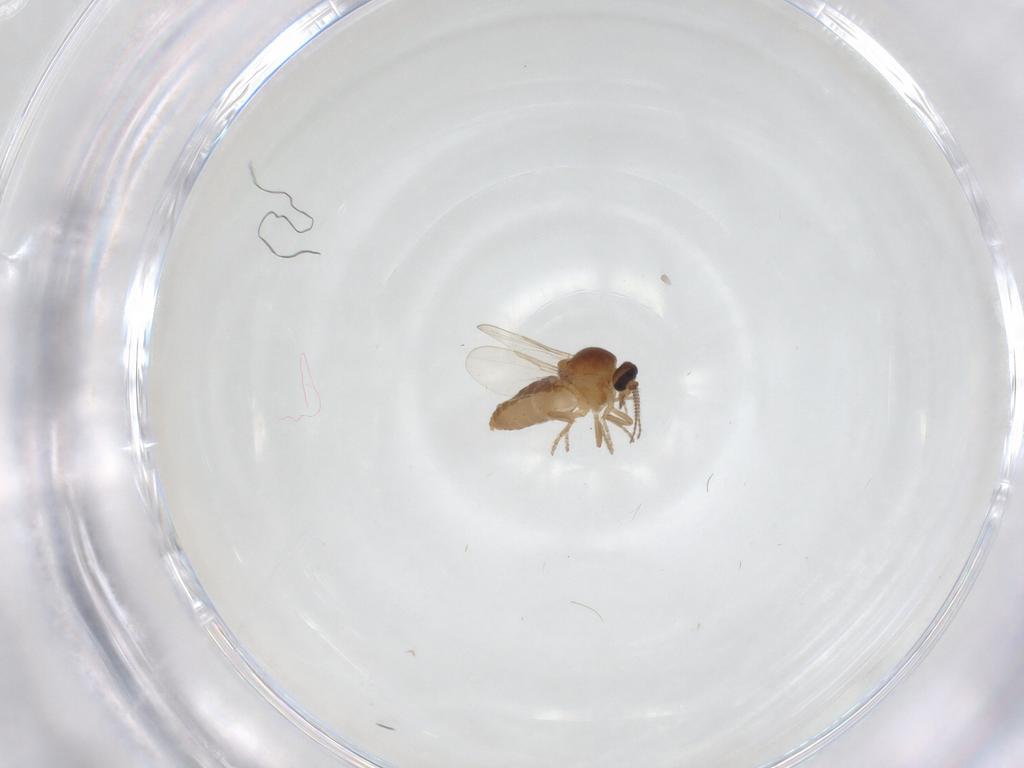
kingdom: Animalia
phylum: Arthropoda
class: Insecta
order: Diptera
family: Ceratopogonidae
